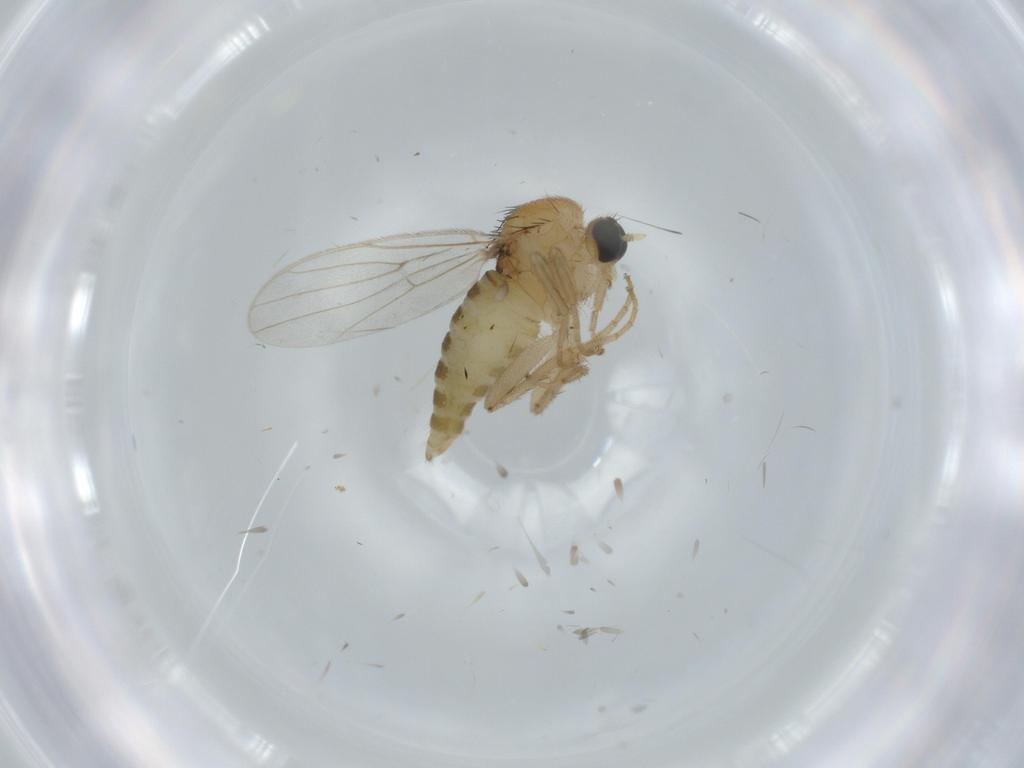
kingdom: Animalia
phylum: Arthropoda
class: Insecta
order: Diptera
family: Hybotidae
